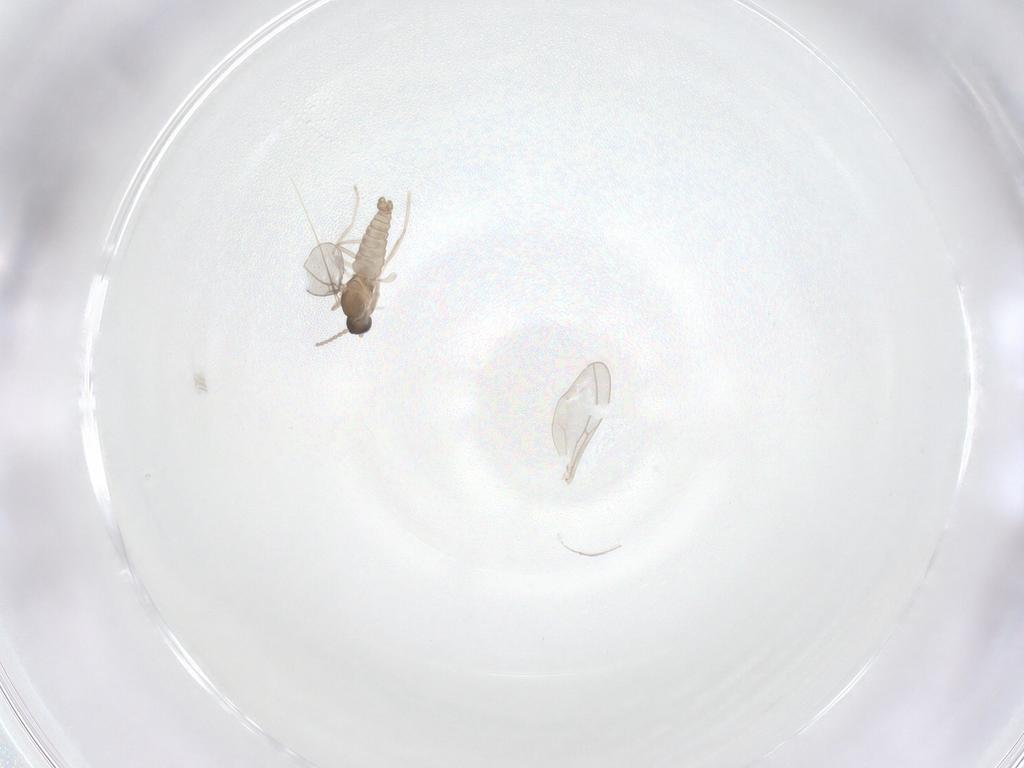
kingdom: Animalia
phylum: Arthropoda
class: Insecta
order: Diptera
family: Cecidomyiidae
